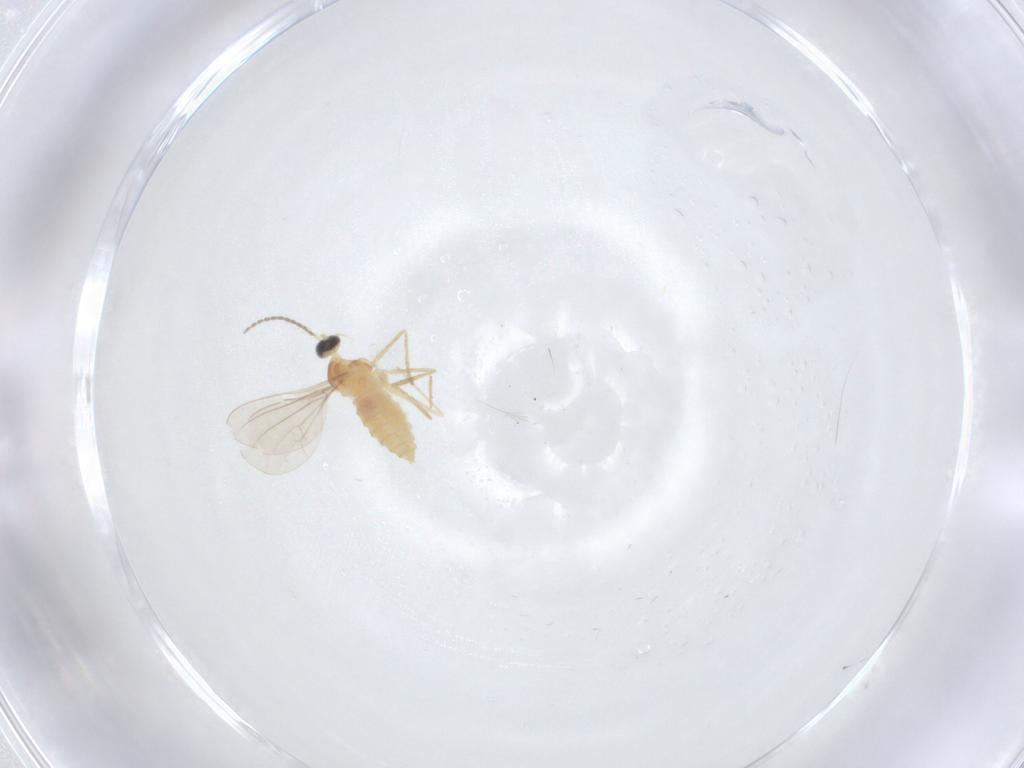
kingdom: Animalia
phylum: Arthropoda
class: Insecta
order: Diptera
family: Cecidomyiidae
